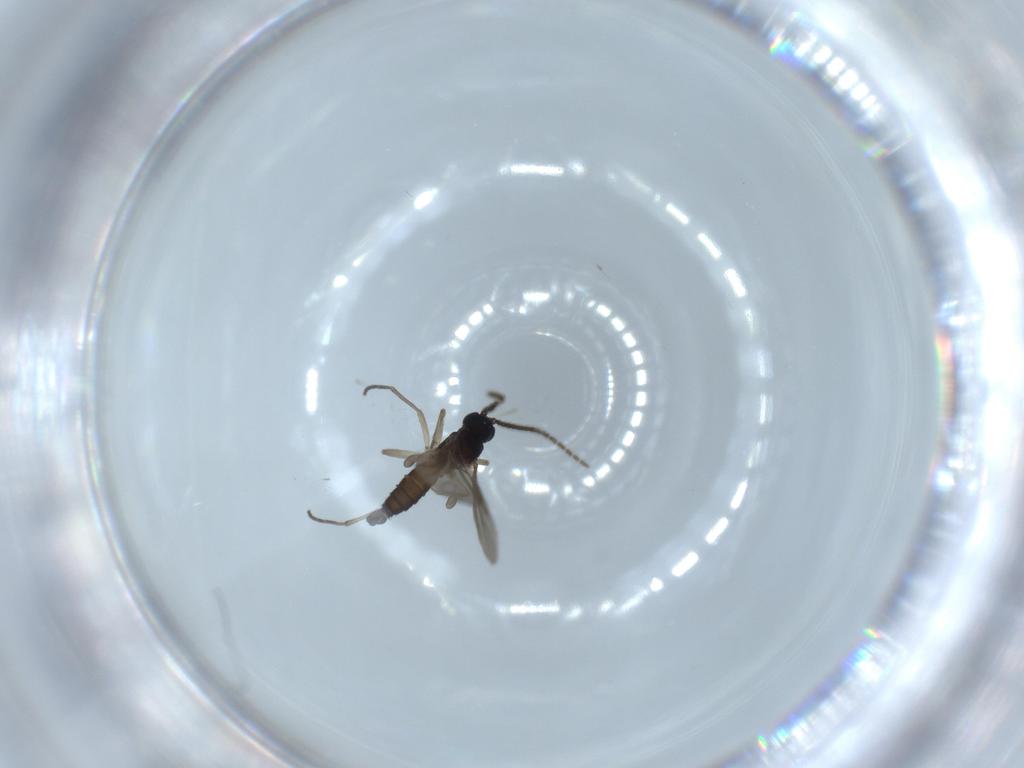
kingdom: Animalia
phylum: Arthropoda
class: Insecta
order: Diptera
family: Sciaridae
